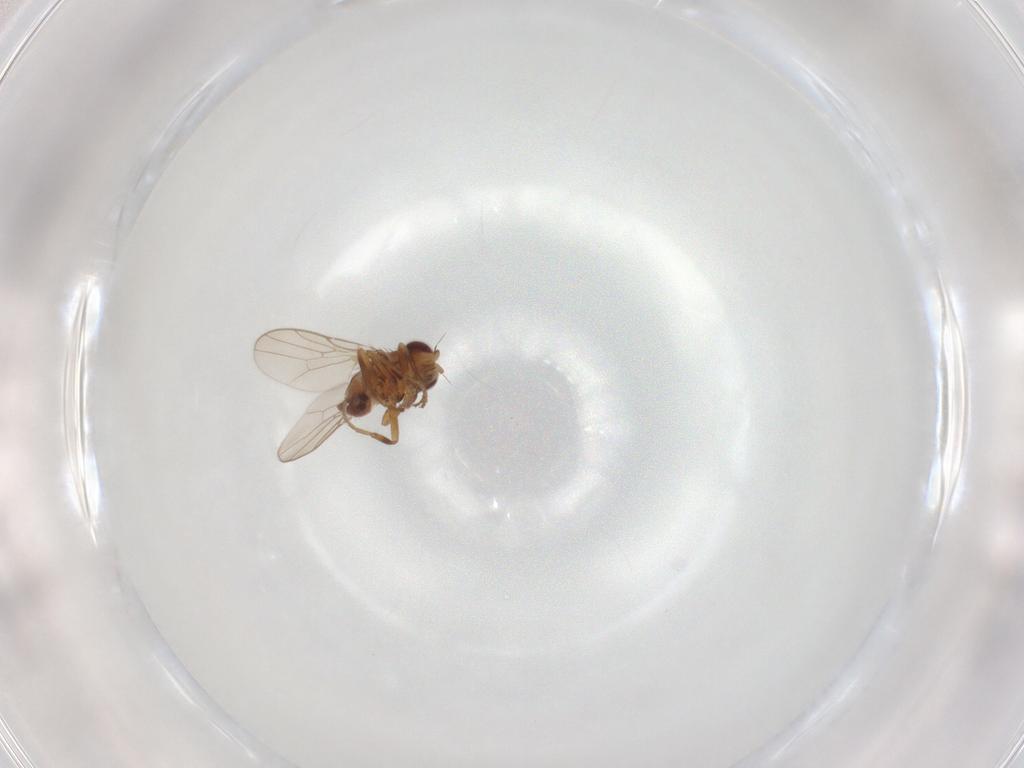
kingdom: Animalia
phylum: Arthropoda
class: Insecta
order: Diptera
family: Chloropidae
